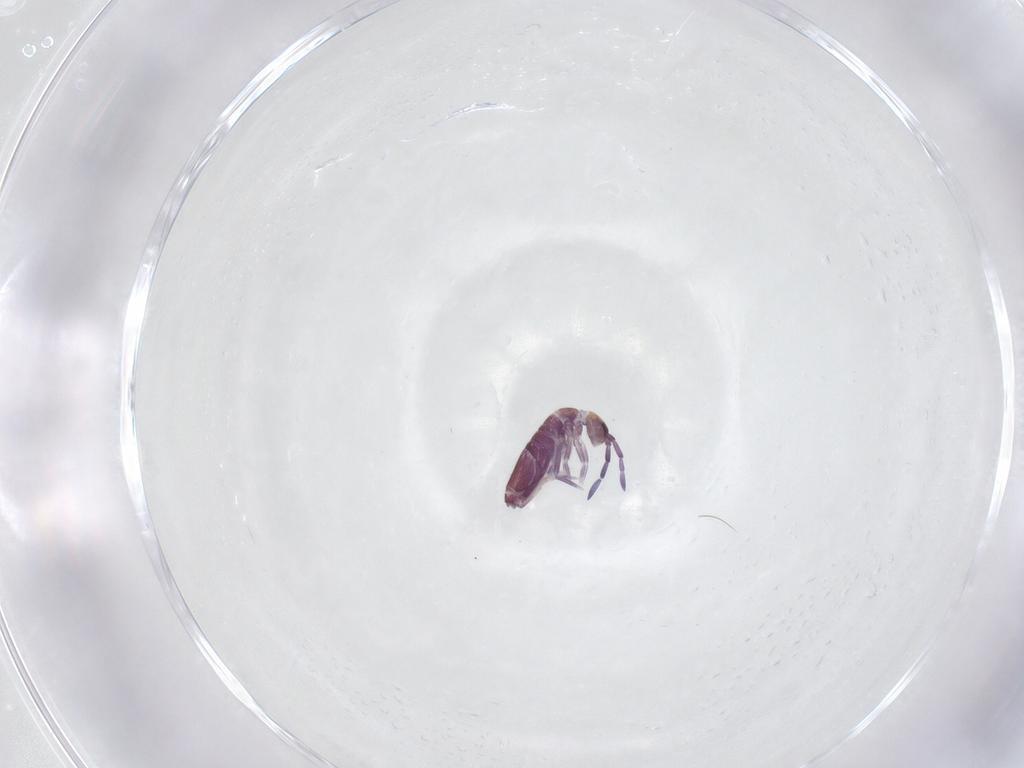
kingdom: Animalia
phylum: Arthropoda
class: Collembola
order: Entomobryomorpha
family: Entomobryidae
